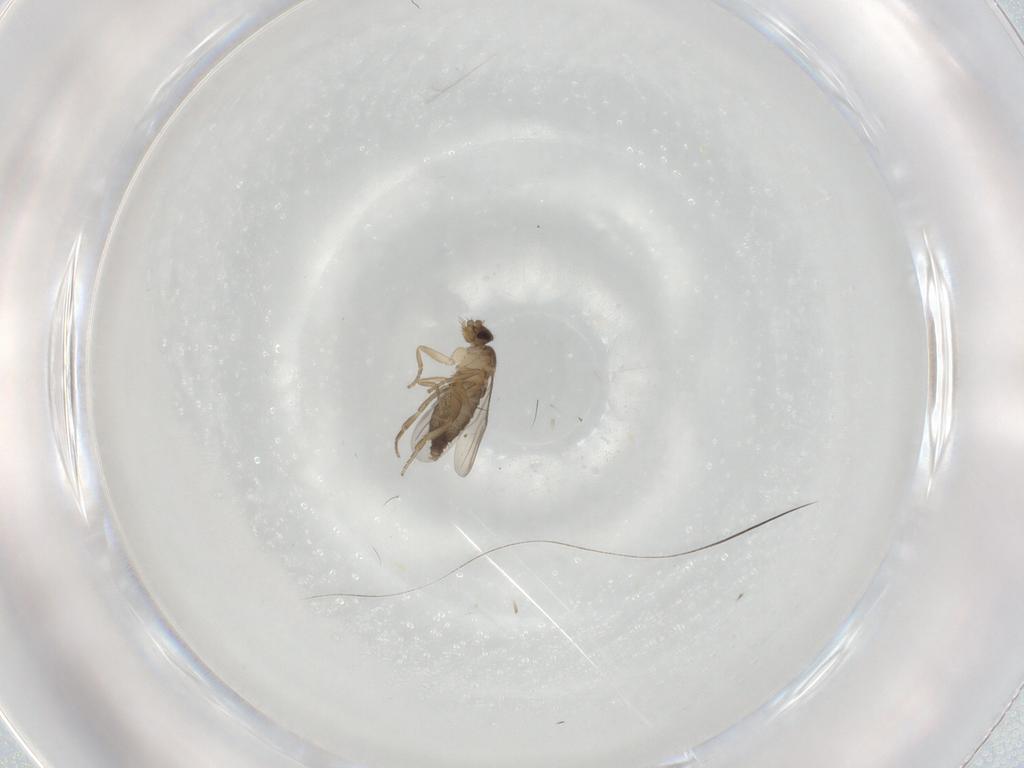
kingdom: Animalia
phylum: Arthropoda
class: Insecta
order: Diptera
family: Phoridae
